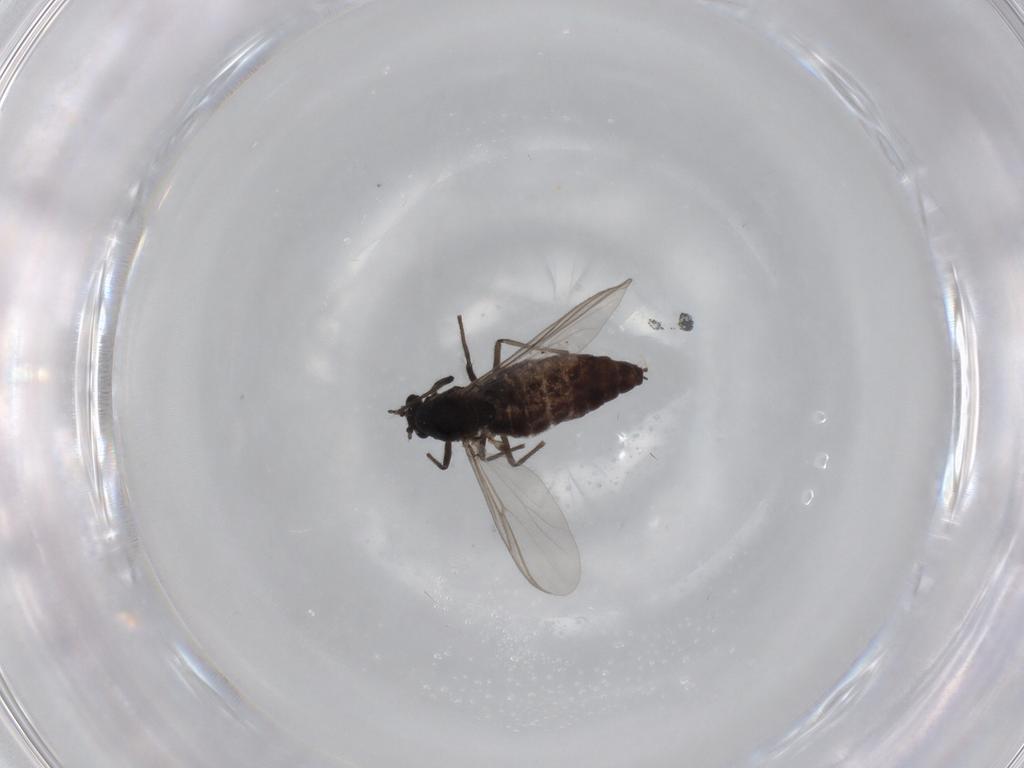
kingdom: Animalia
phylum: Arthropoda
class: Insecta
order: Diptera
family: Chironomidae
